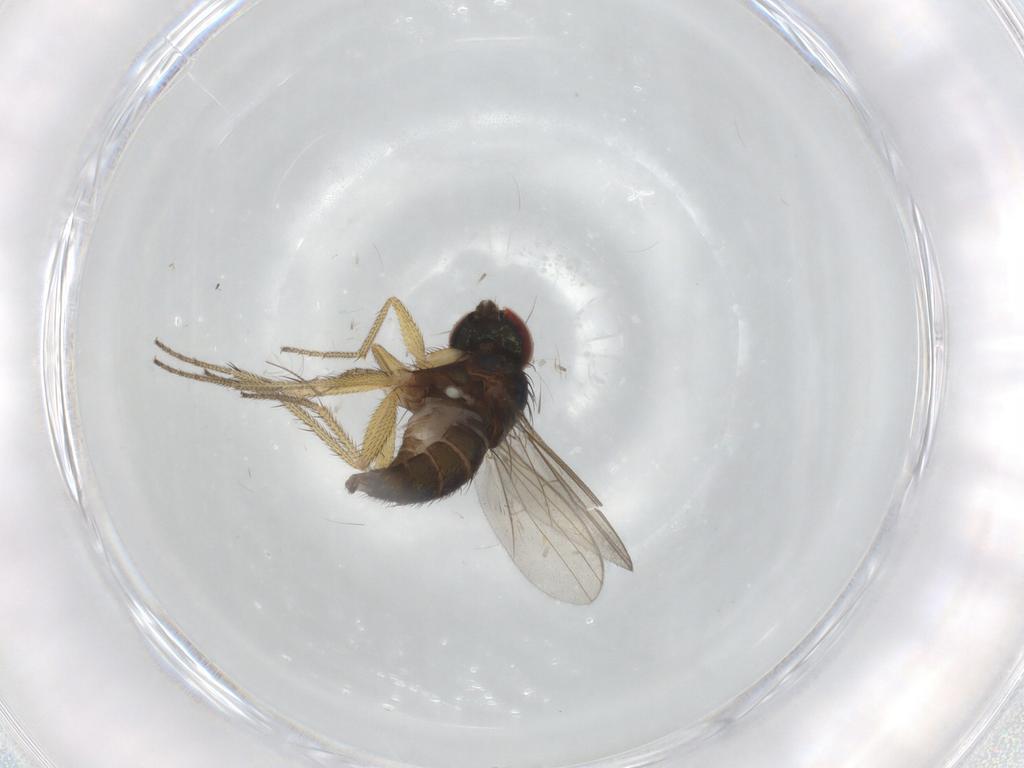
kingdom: Animalia
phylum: Arthropoda
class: Insecta
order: Diptera
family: Dolichopodidae
